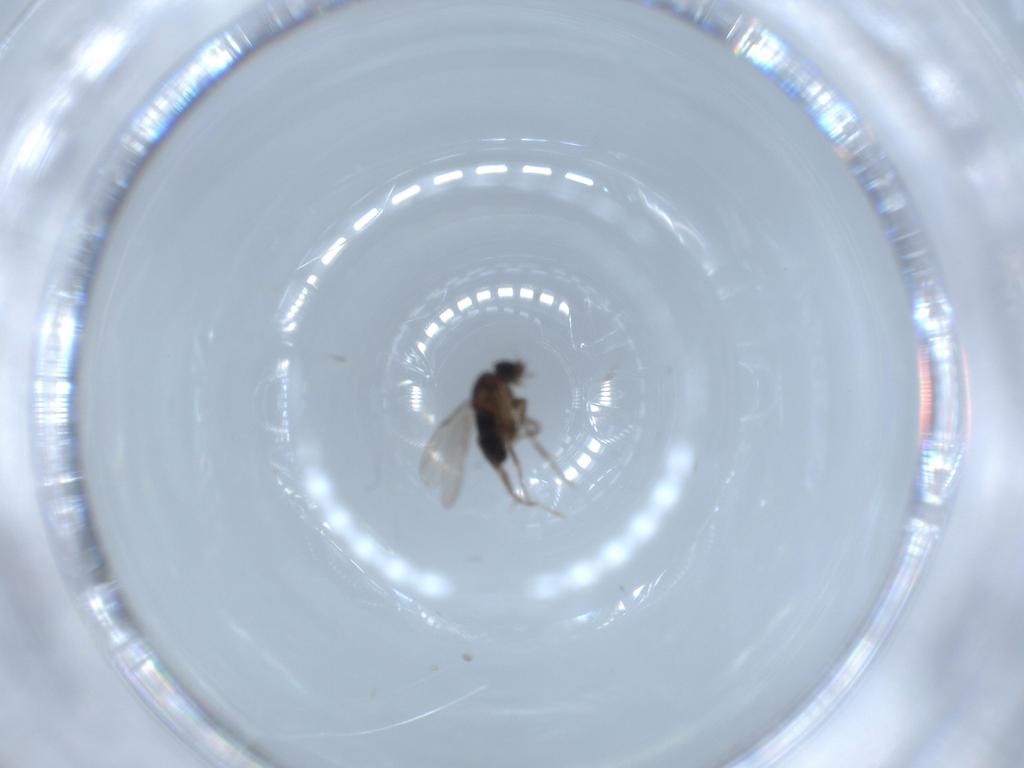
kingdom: Animalia
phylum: Arthropoda
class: Insecta
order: Diptera
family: Phoridae
